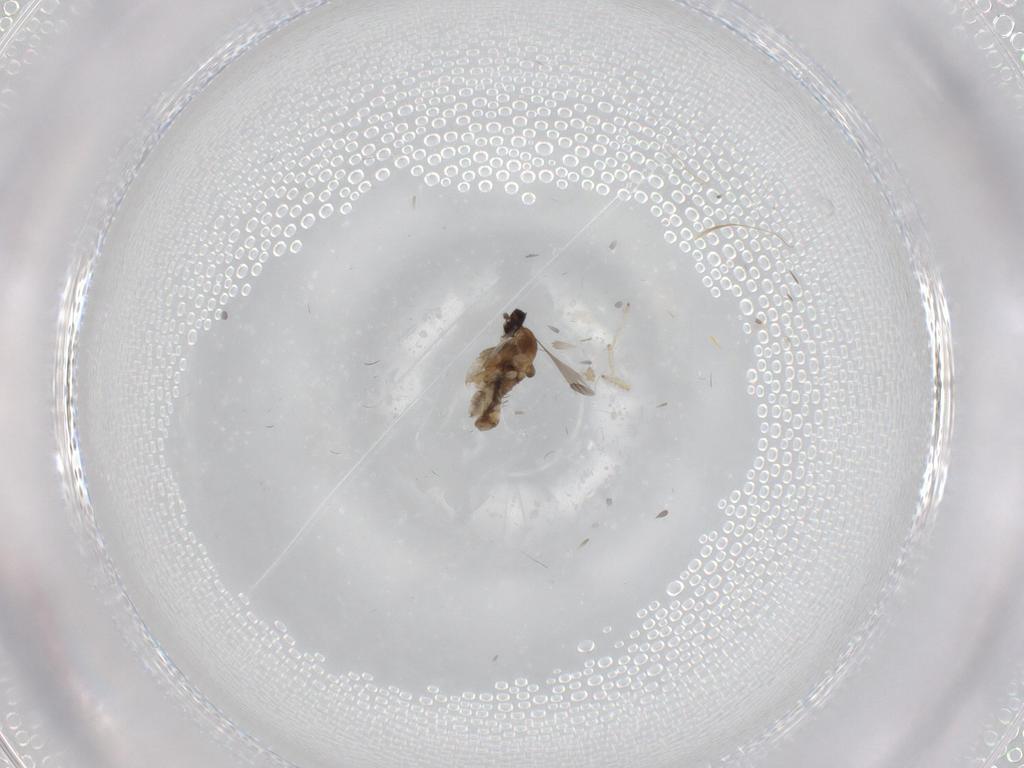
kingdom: Animalia
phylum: Arthropoda
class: Insecta
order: Diptera
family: Cecidomyiidae
